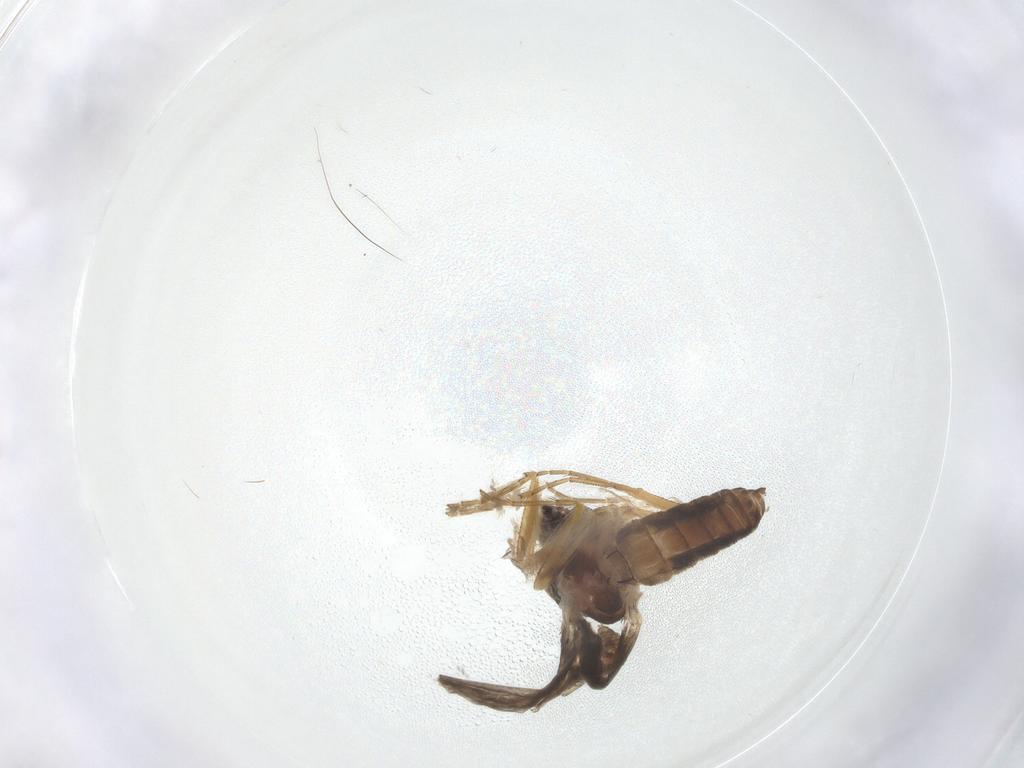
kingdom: Animalia
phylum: Arthropoda
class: Insecta
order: Diptera
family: Chironomidae
